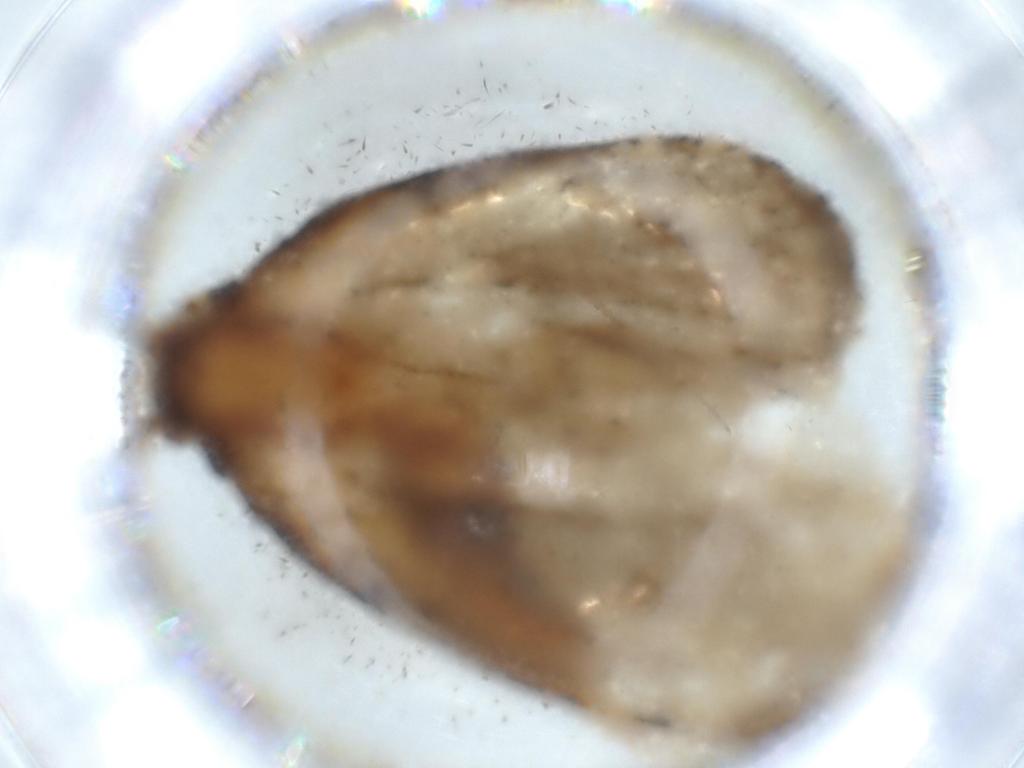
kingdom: Animalia
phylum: Arthropoda
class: Insecta
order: Lepidoptera
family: Tortricidae
